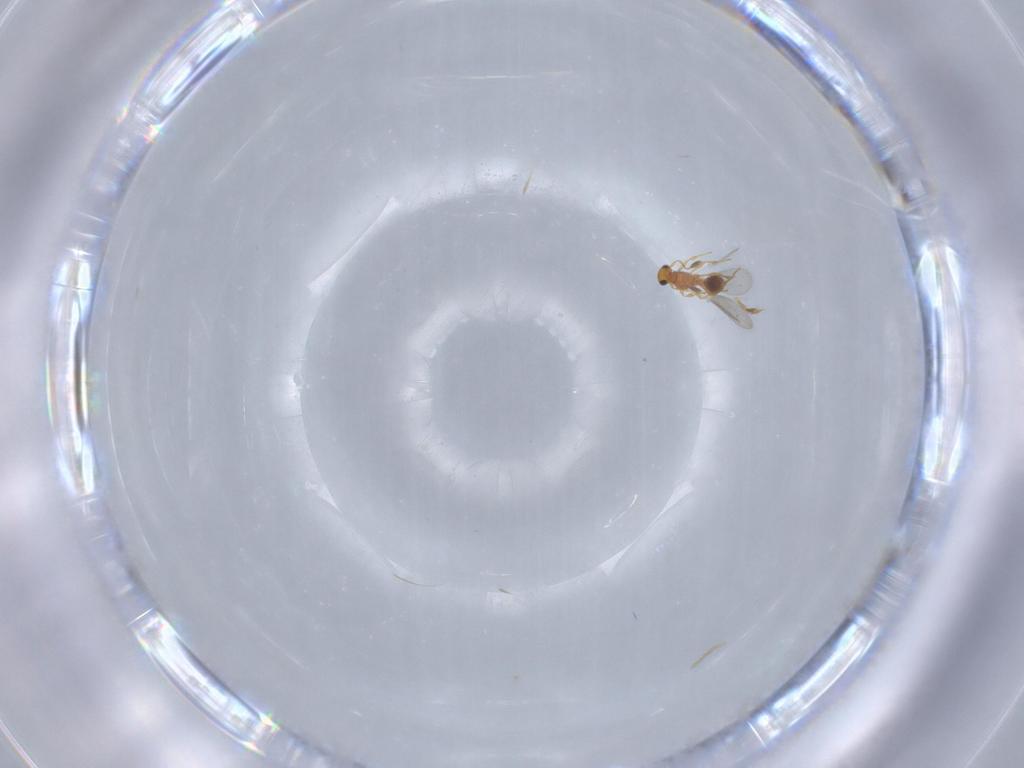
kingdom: Animalia
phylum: Arthropoda
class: Insecta
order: Hymenoptera
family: Platygastridae
